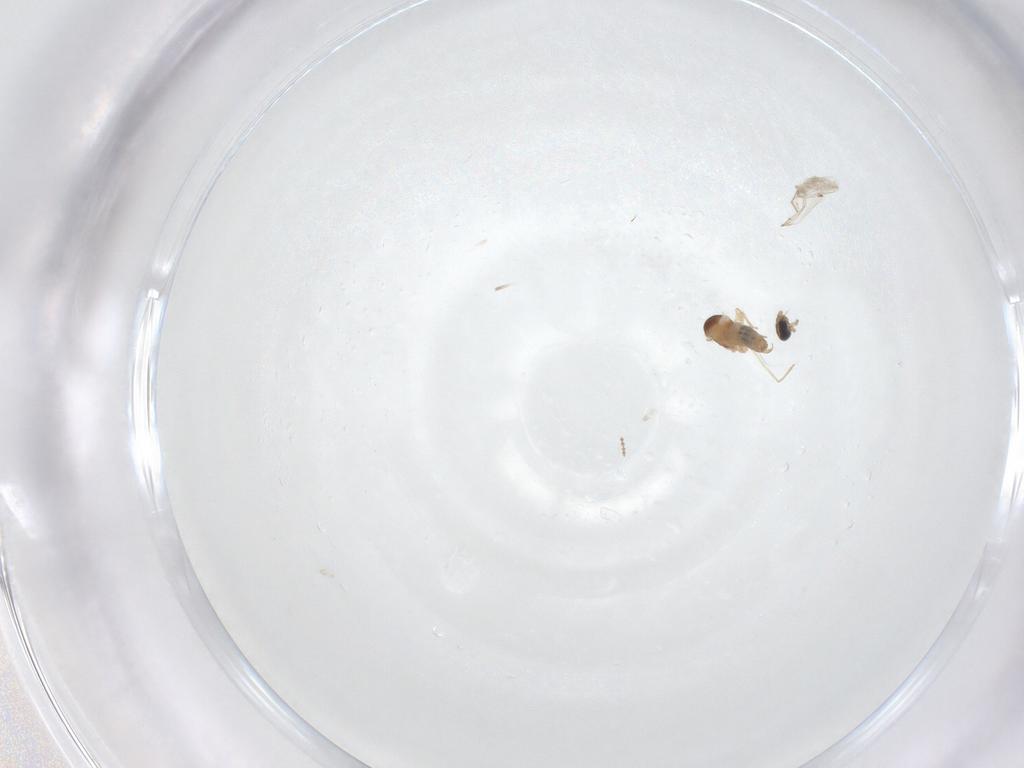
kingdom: Animalia
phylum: Arthropoda
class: Insecta
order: Diptera
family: Cecidomyiidae
